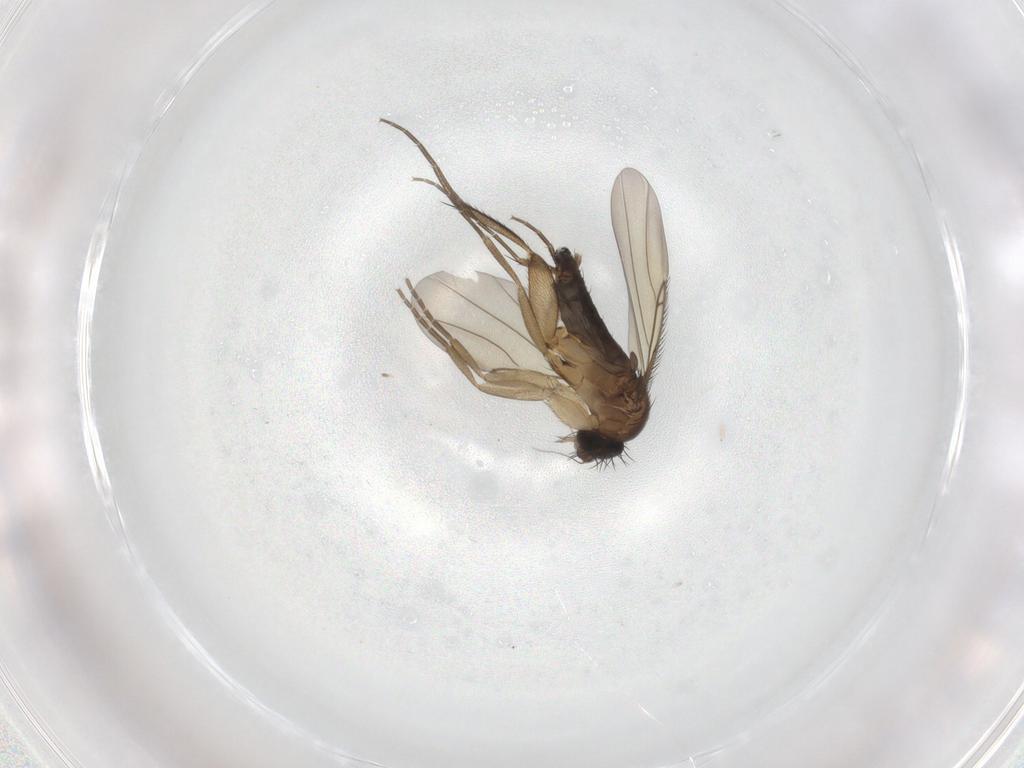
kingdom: Animalia
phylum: Arthropoda
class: Insecta
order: Diptera
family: Phoridae
